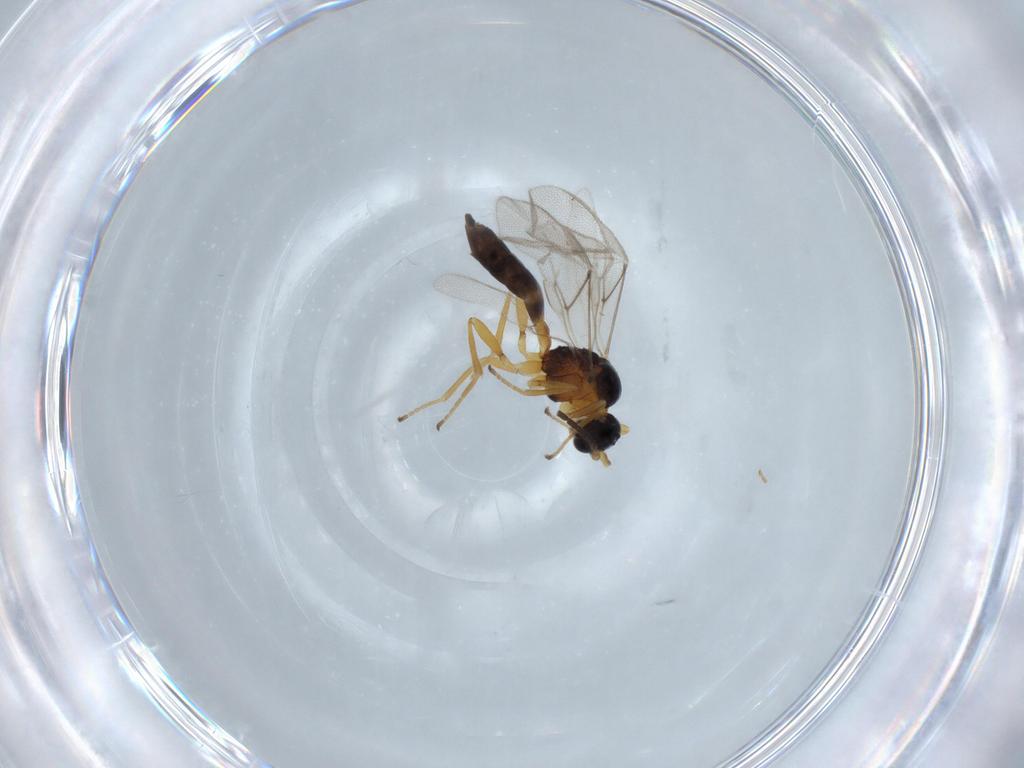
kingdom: Animalia
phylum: Arthropoda
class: Insecta
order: Hymenoptera
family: Braconidae
